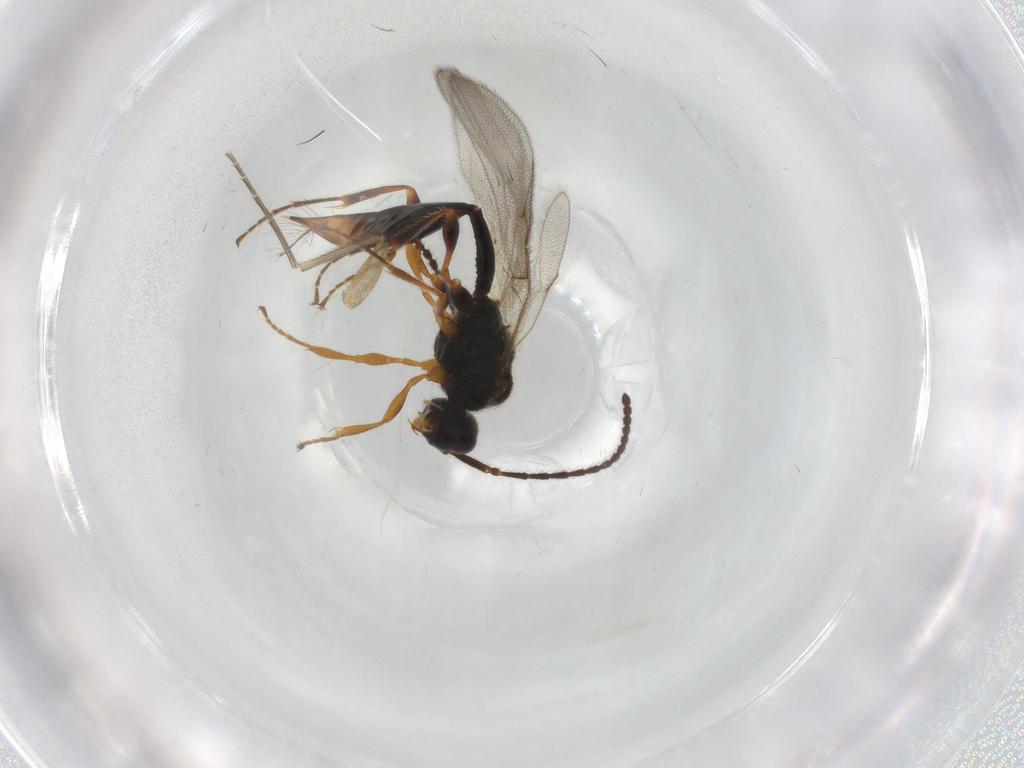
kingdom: Animalia
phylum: Arthropoda
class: Insecta
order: Hymenoptera
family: Diapriidae
